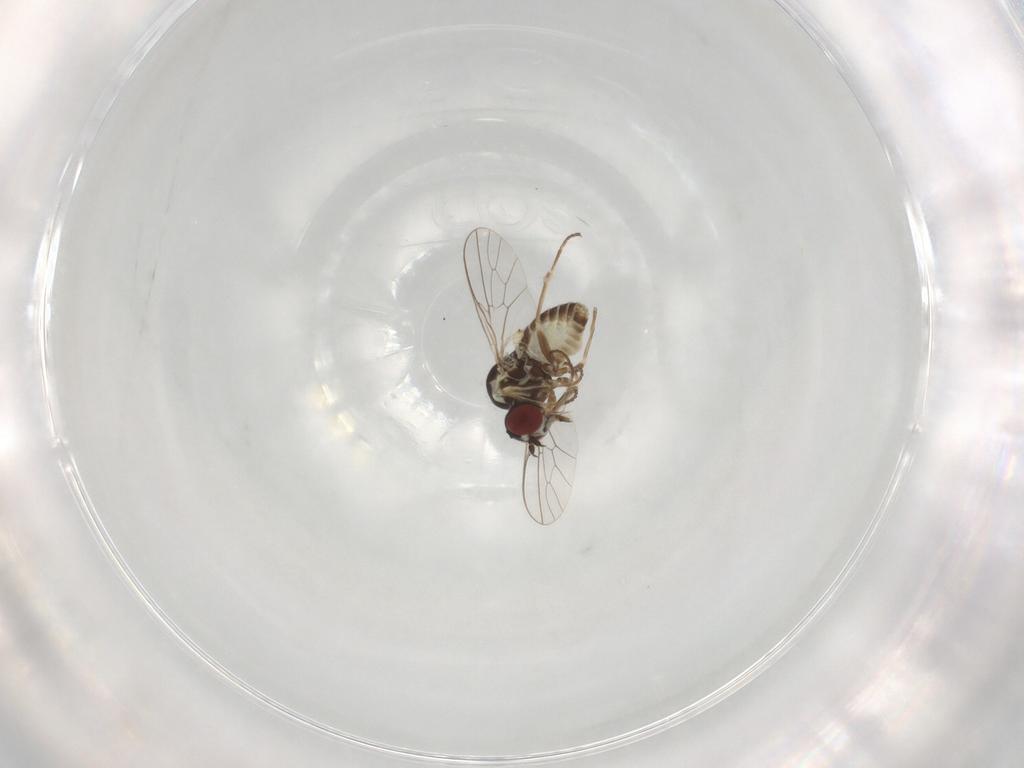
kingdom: Animalia
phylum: Arthropoda
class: Insecta
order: Diptera
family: Bombyliidae
